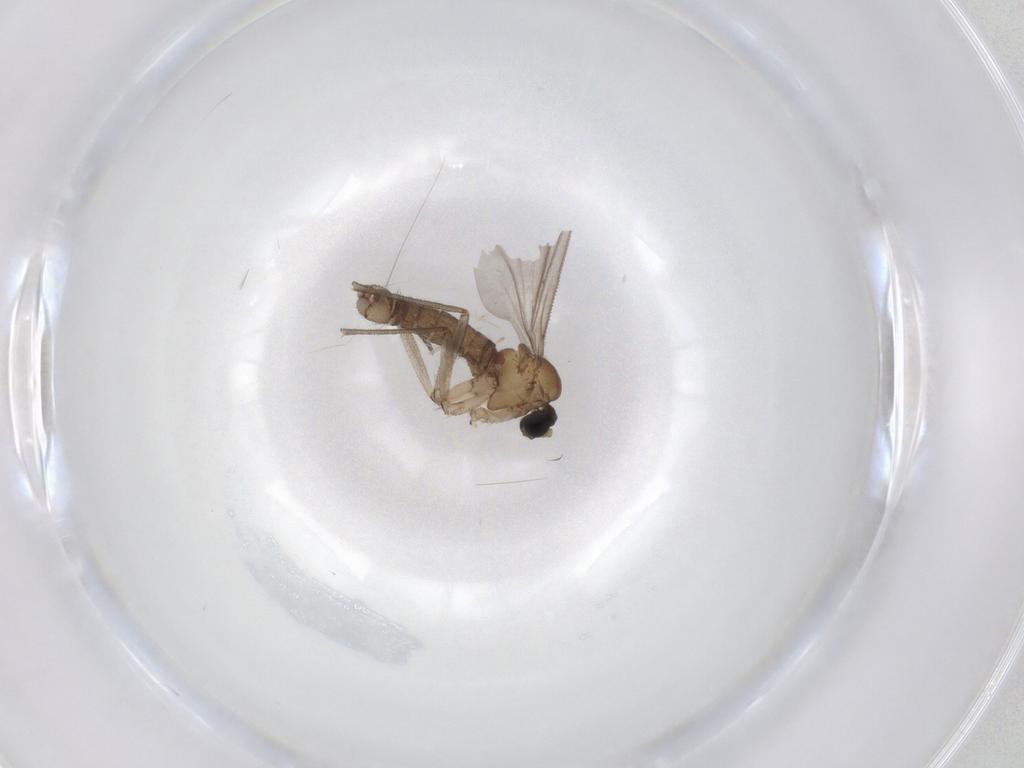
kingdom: Animalia
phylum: Arthropoda
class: Insecta
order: Diptera
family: Sciaridae
